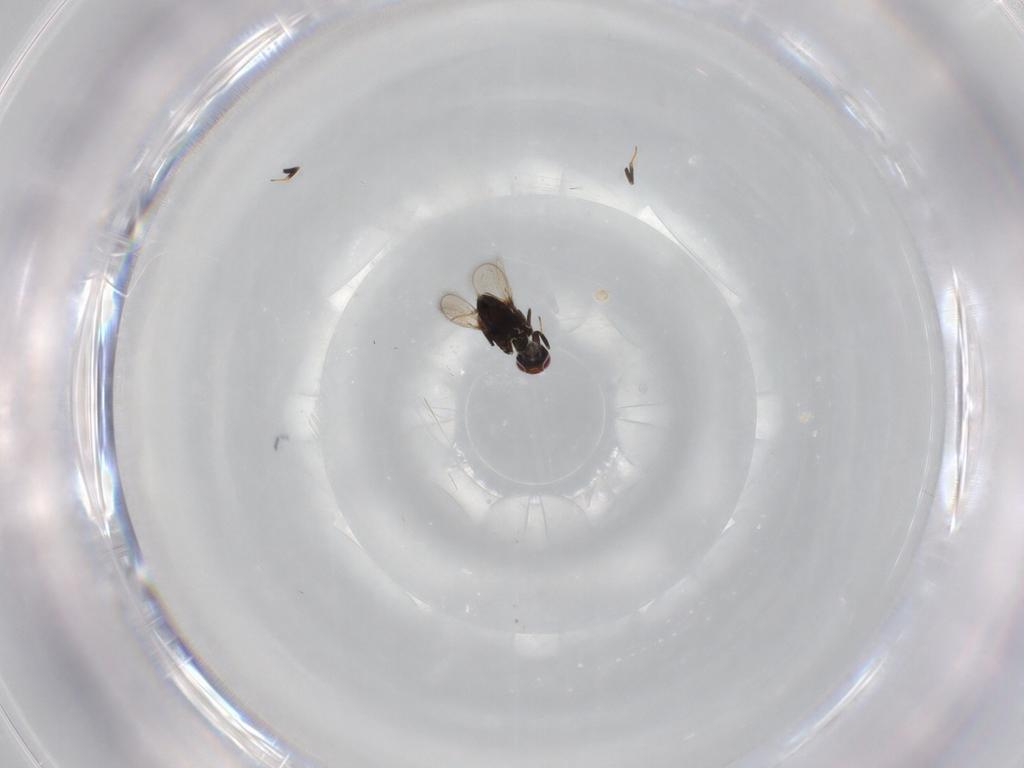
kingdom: Animalia
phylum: Arthropoda
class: Insecta
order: Hymenoptera
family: Azotidae
